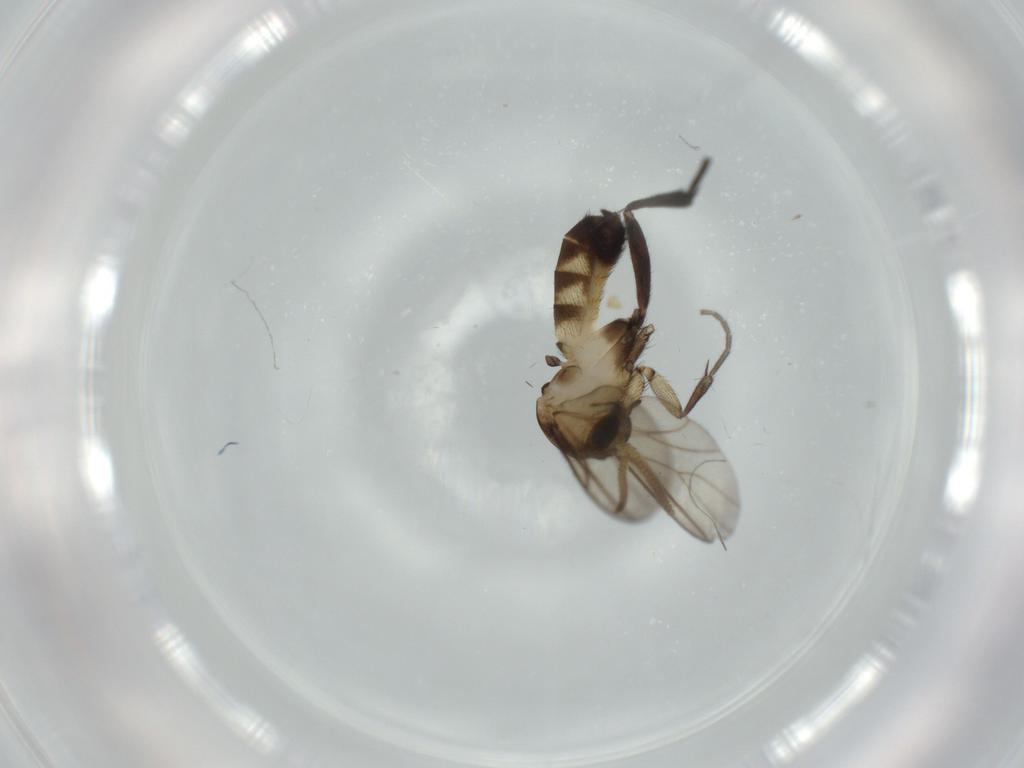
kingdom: Animalia
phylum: Arthropoda
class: Insecta
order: Diptera
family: Dolichopodidae
